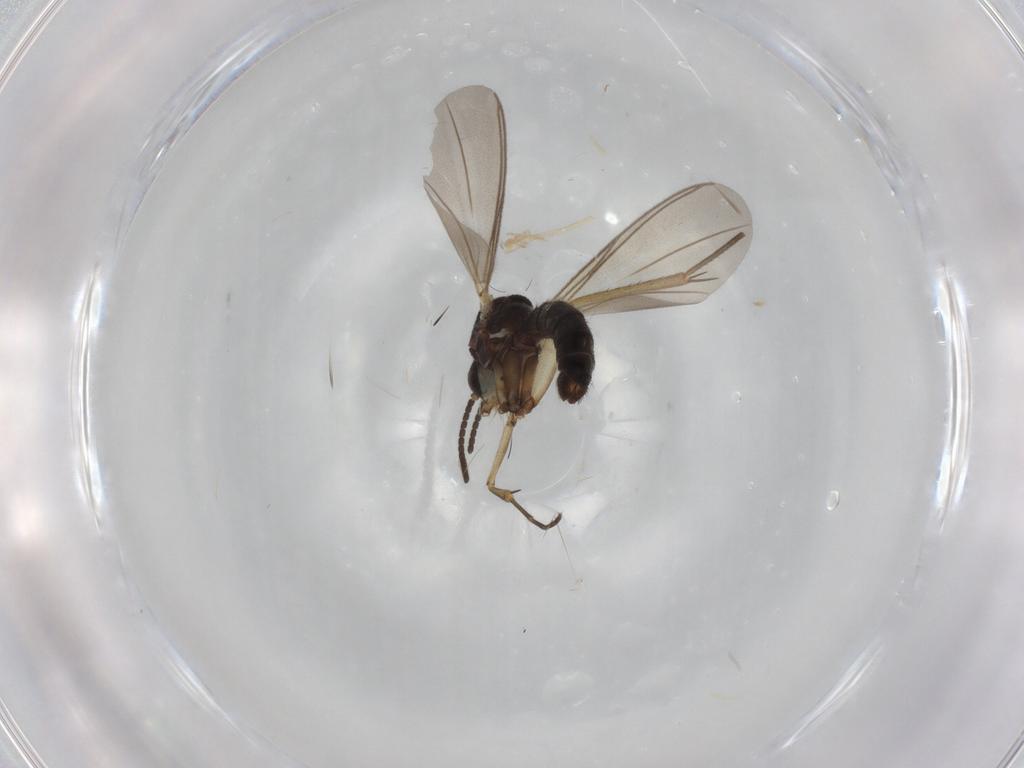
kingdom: Animalia
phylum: Arthropoda
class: Insecta
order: Diptera
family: Mycetophilidae
